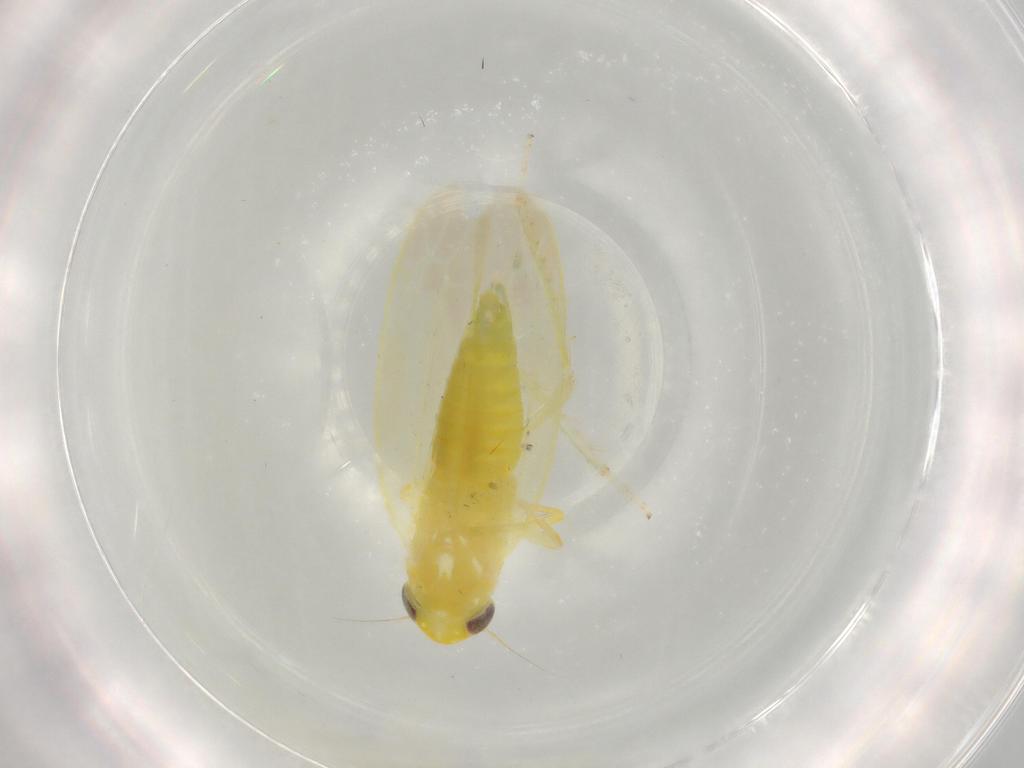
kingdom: Animalia
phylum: Arthropoda
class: Insecta
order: Hemiptera
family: Cicadellidae
